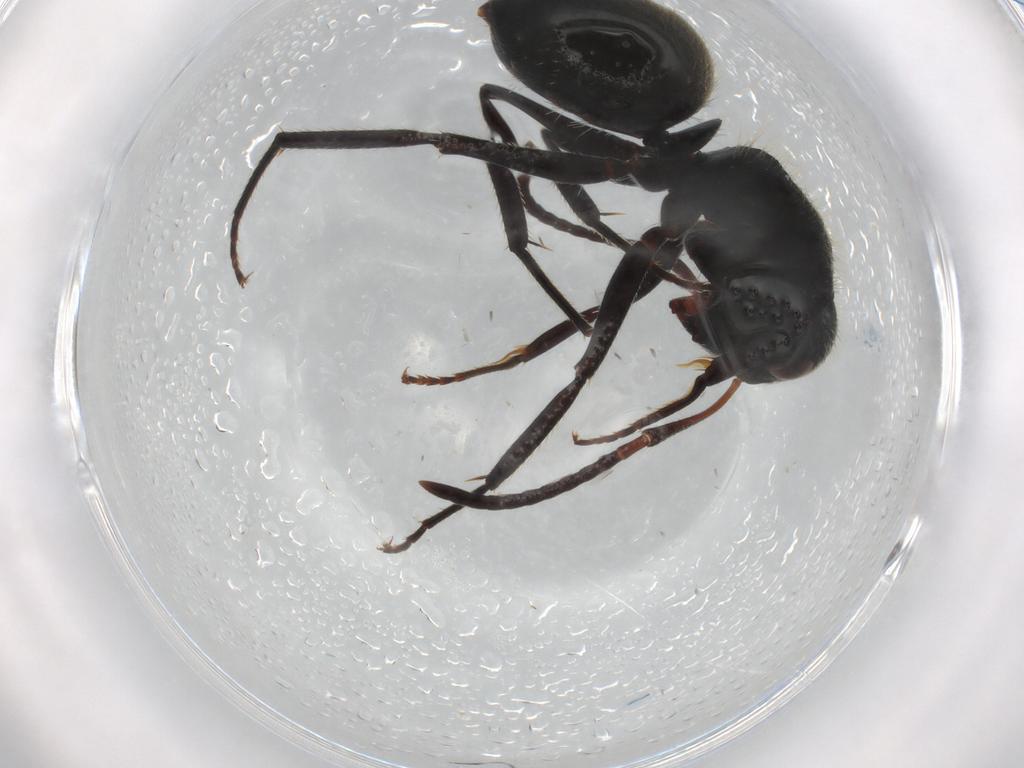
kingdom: Animalia
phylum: Arthropoda
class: Insecta
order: Hymenoptera
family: Formicidae
